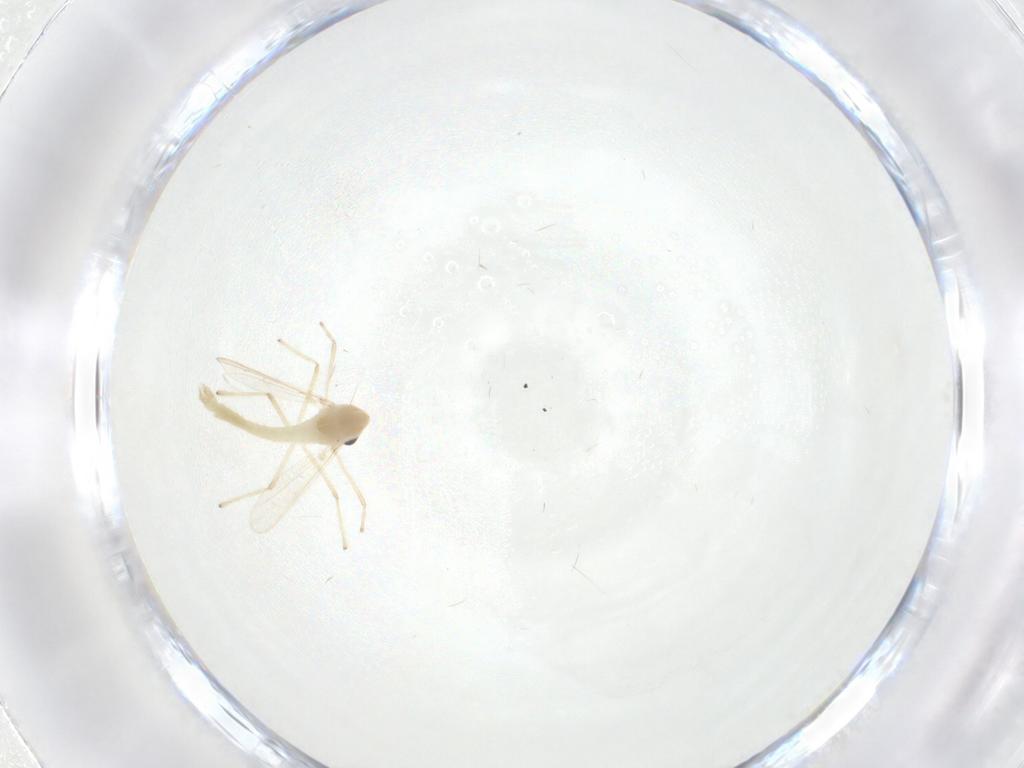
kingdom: Animalia
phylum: Arthropoda
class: Insecta
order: Diptera
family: Chironomidae
